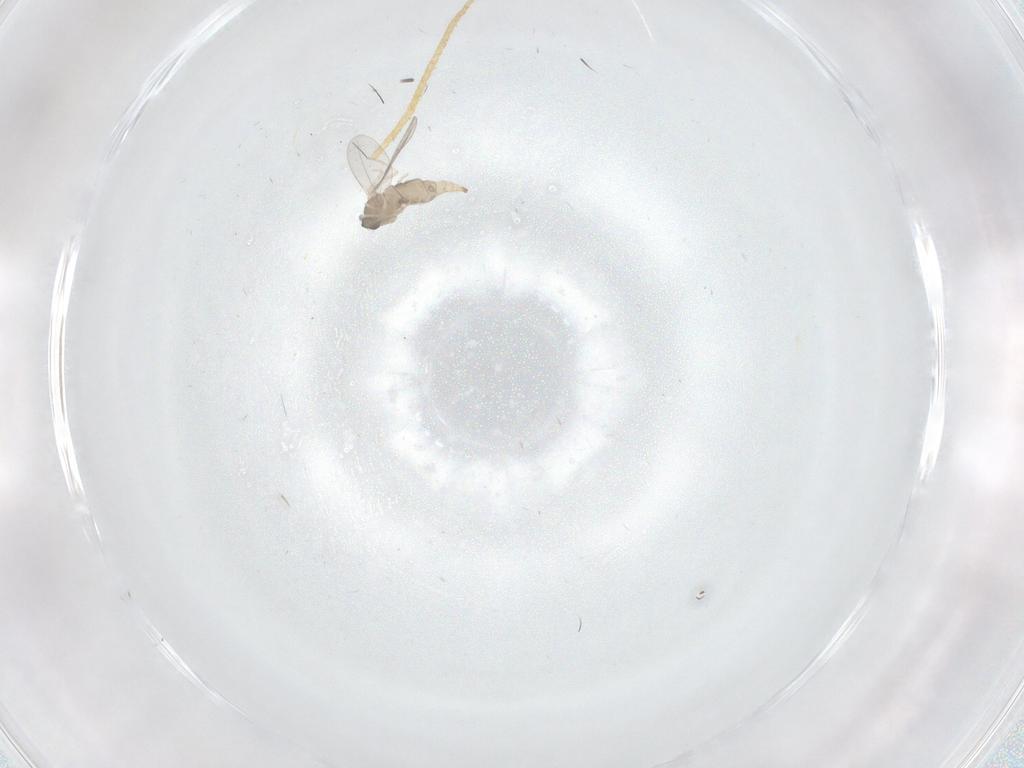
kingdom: Animalia
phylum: Arthropoda
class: Insecta
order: Diptera
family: Cecidomyiidae
